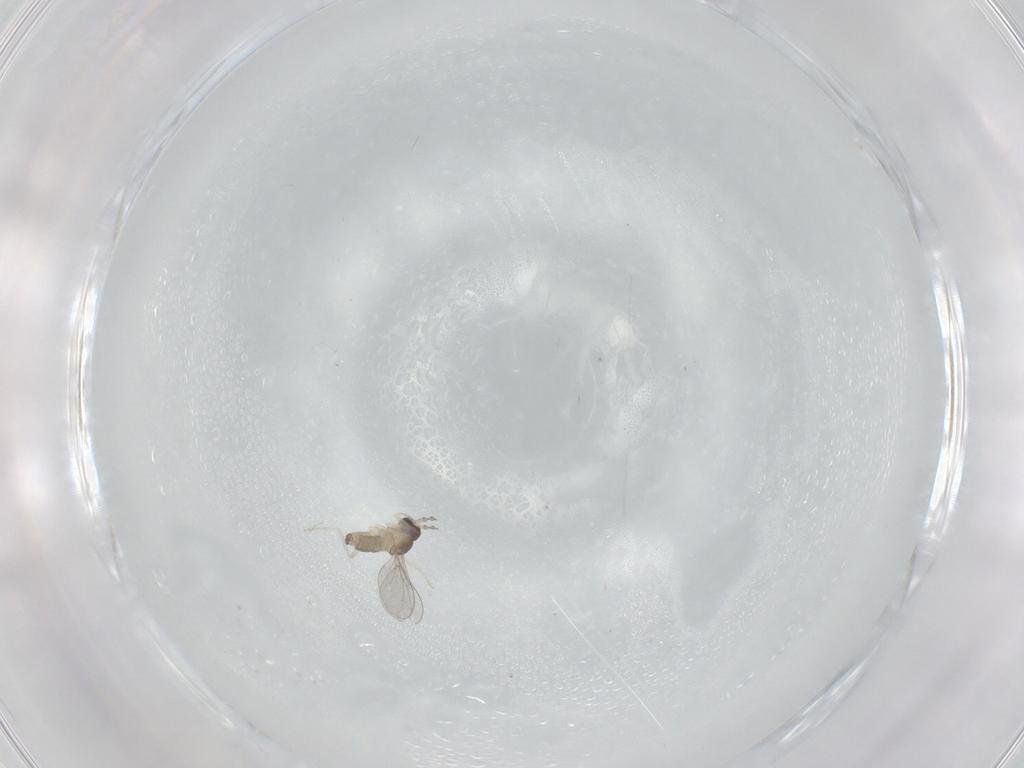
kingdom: Animalia
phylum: Arthropoda
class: Insecta
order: Diptera
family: Cecidomyiidae
